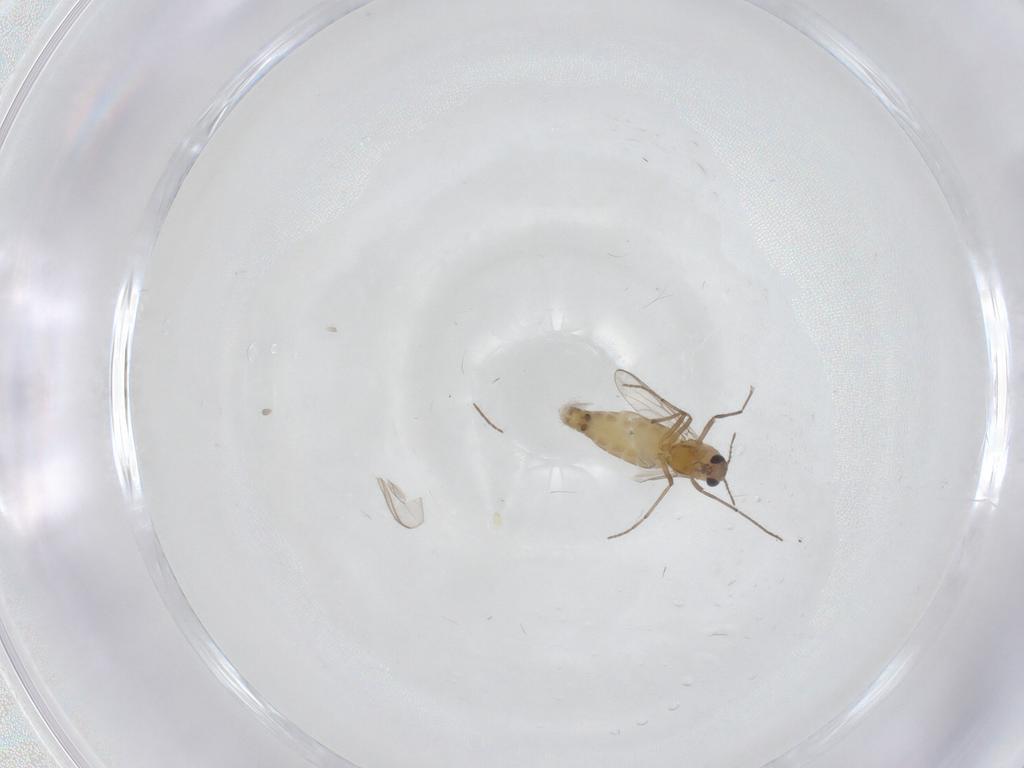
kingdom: Animalia
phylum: Arthropoda
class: Insecta
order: Diptera
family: Chironomidae
